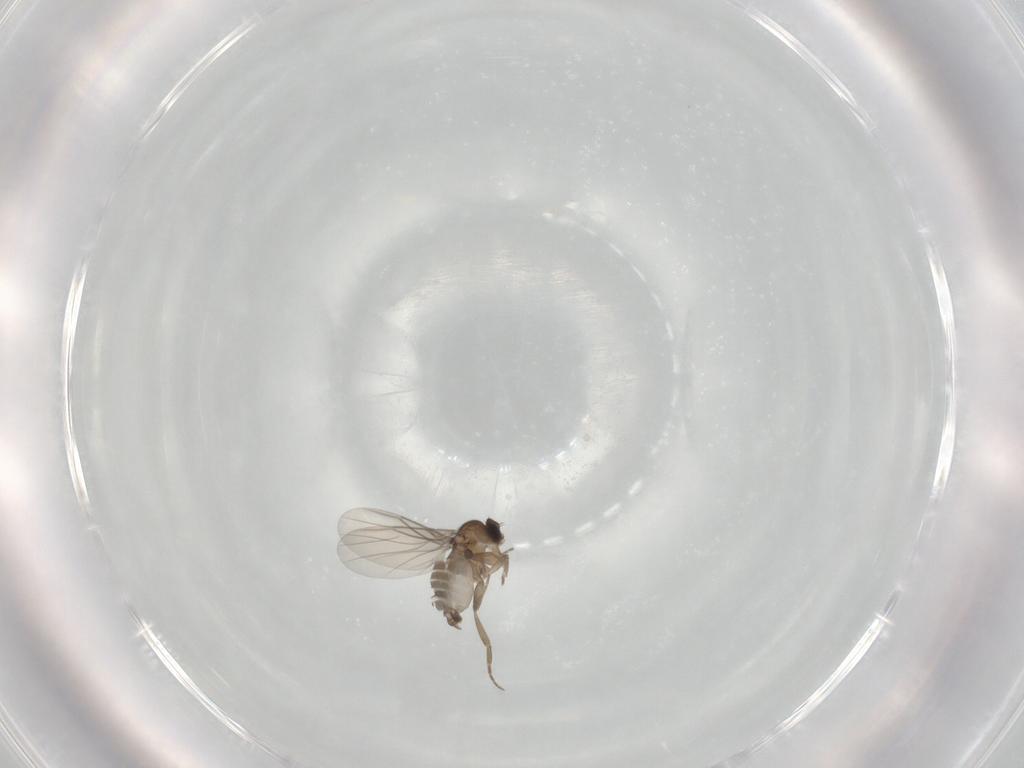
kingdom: Animalia
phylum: Arthropoda
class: Insecta
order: Diptera
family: Phoridae
